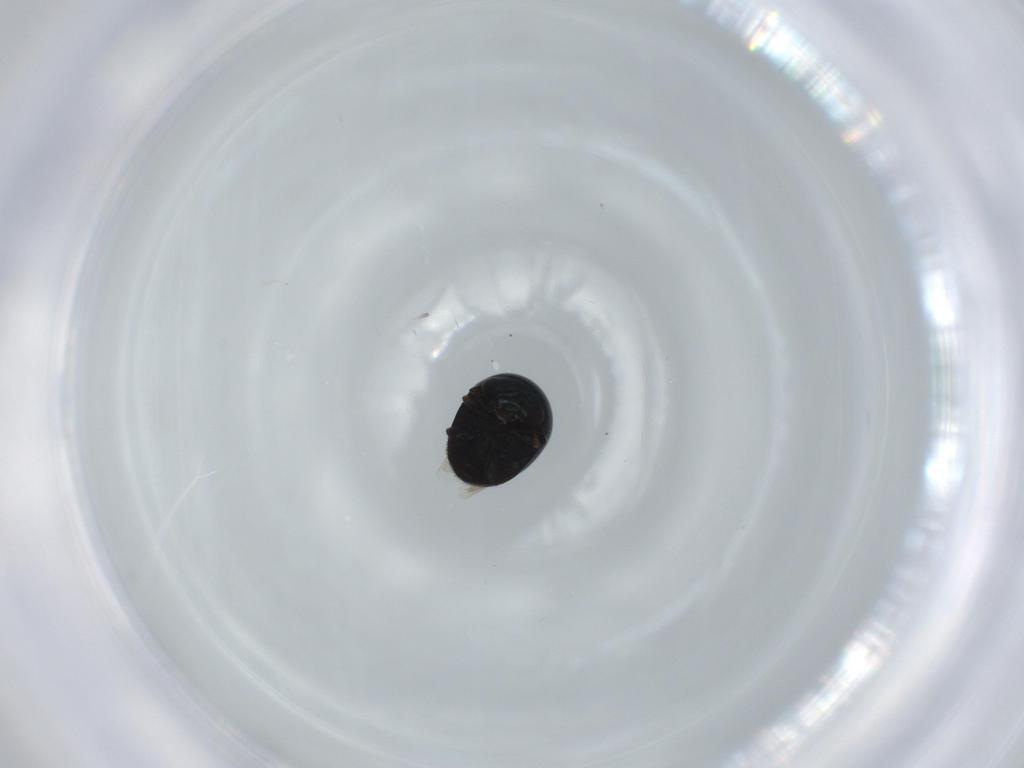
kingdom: Animalia
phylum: Arthropoda
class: Insecta
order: Coleoptera
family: Cybocephalidae
